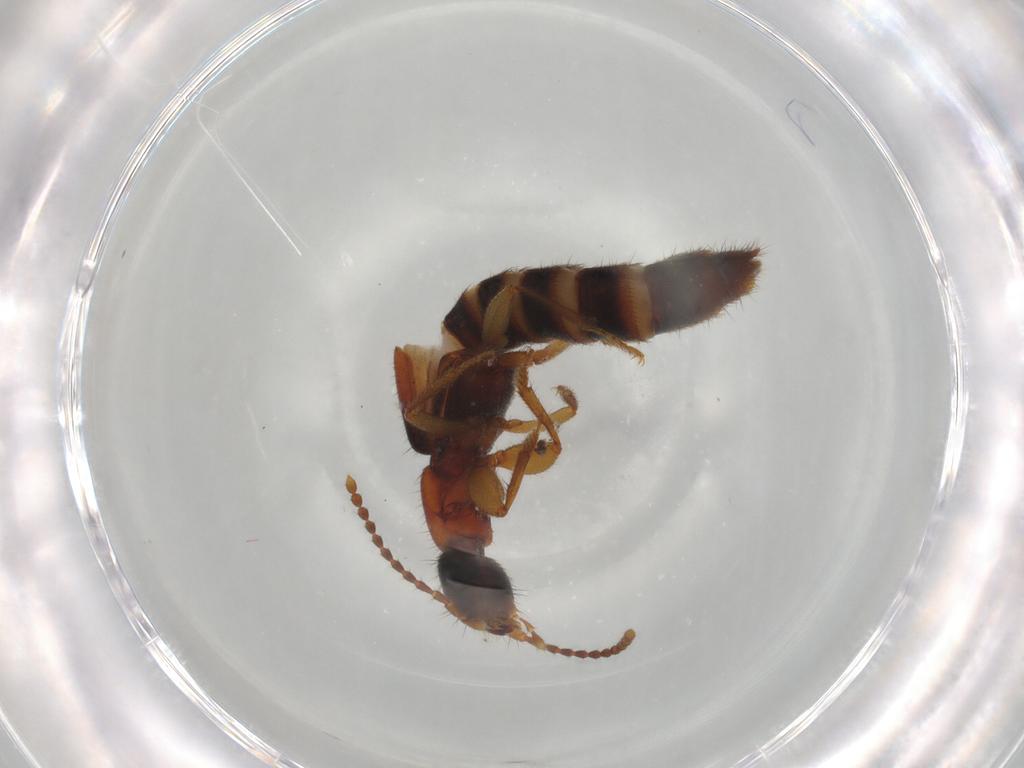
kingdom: Animalia
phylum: Arthropoda
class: Insecta
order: Coleoptera
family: Staphylinidae
